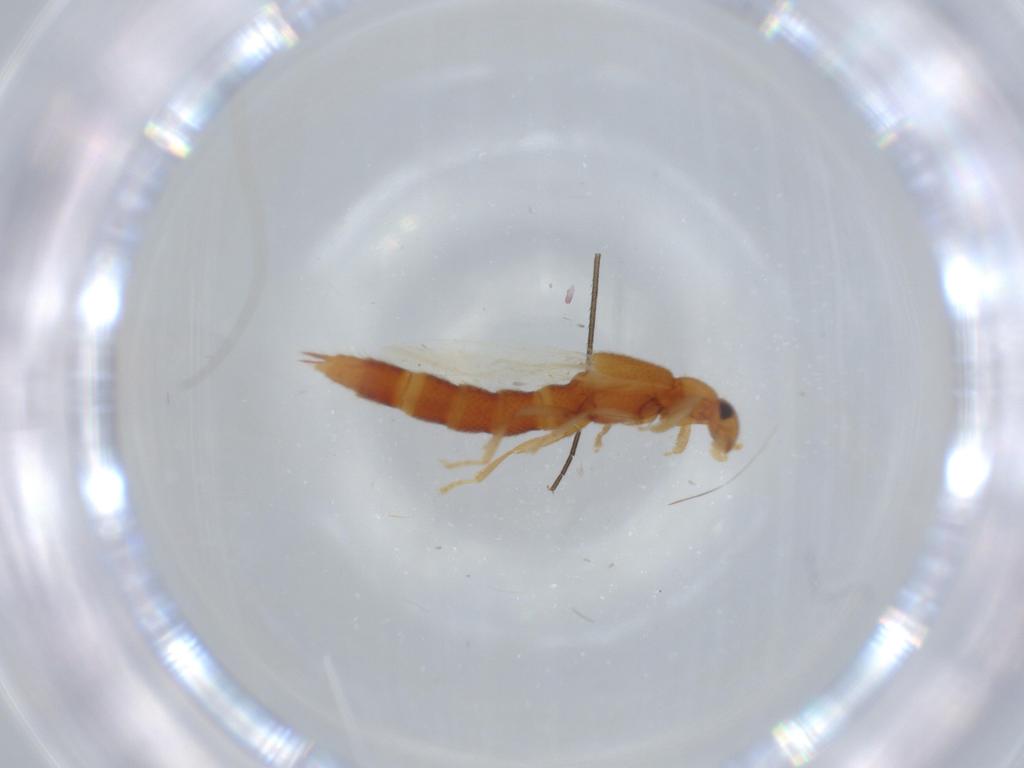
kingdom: Animalia
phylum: Arthropoda
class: Insecta
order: Coleoptera
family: Staphylinidae
